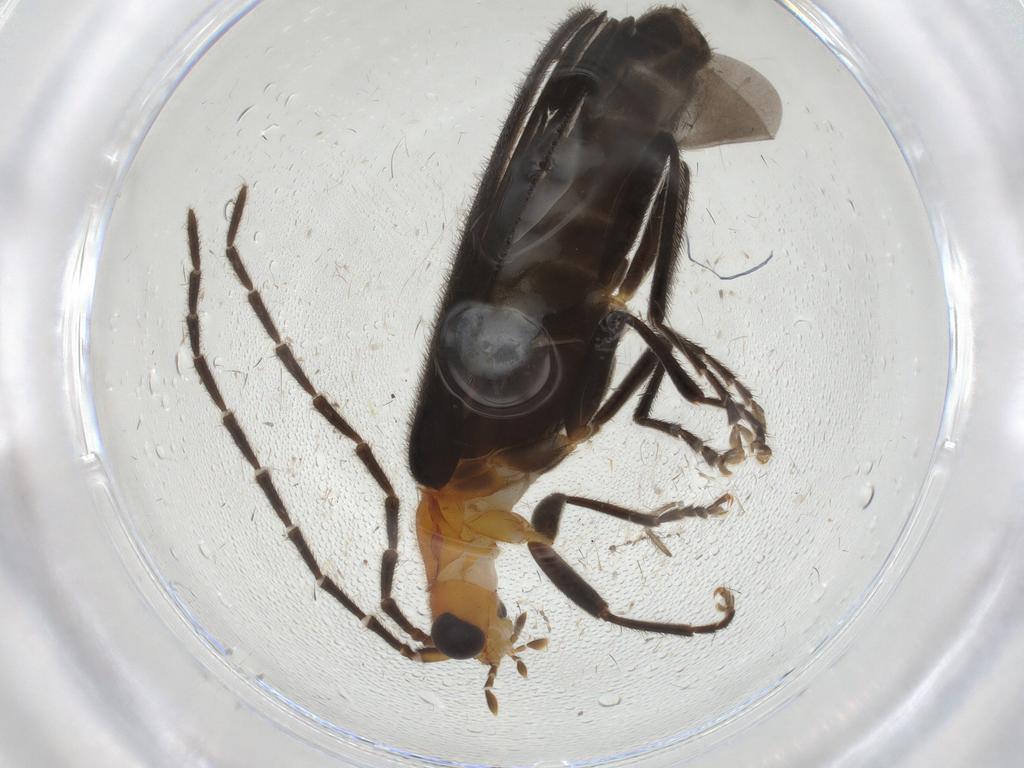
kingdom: Animalia
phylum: Arthropoda
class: Insecta
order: Coleoptera
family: Cantharidae
